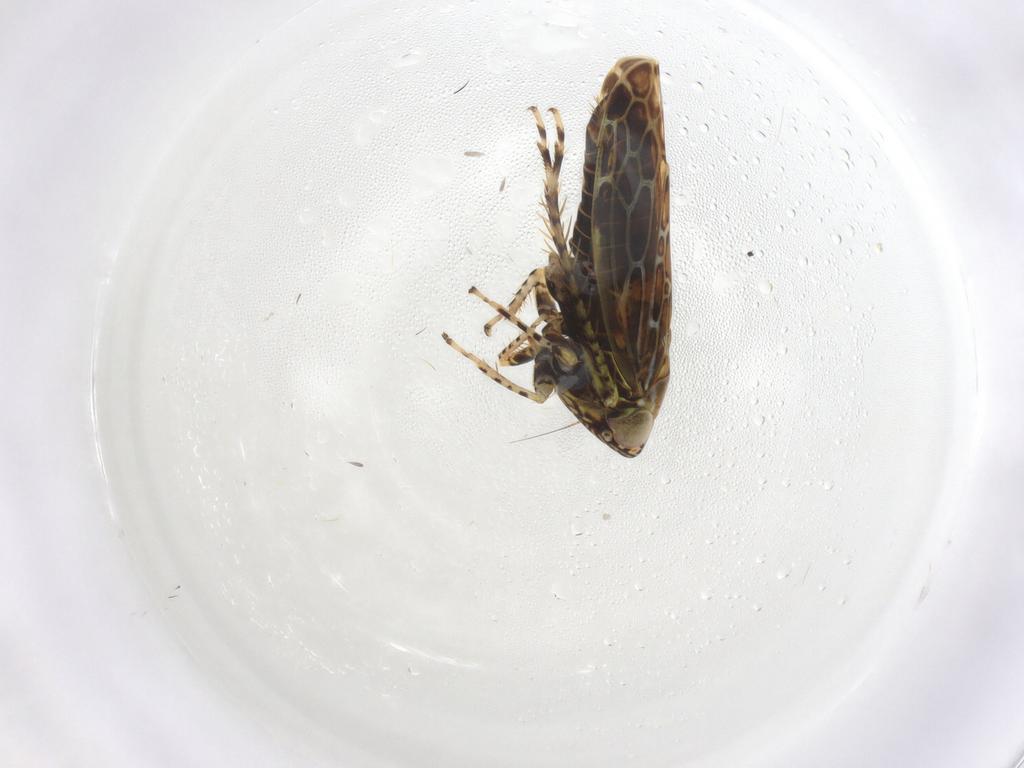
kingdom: Animalia
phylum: Arthropoda
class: Insecta
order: Hemiptera
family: Cicadellidae
